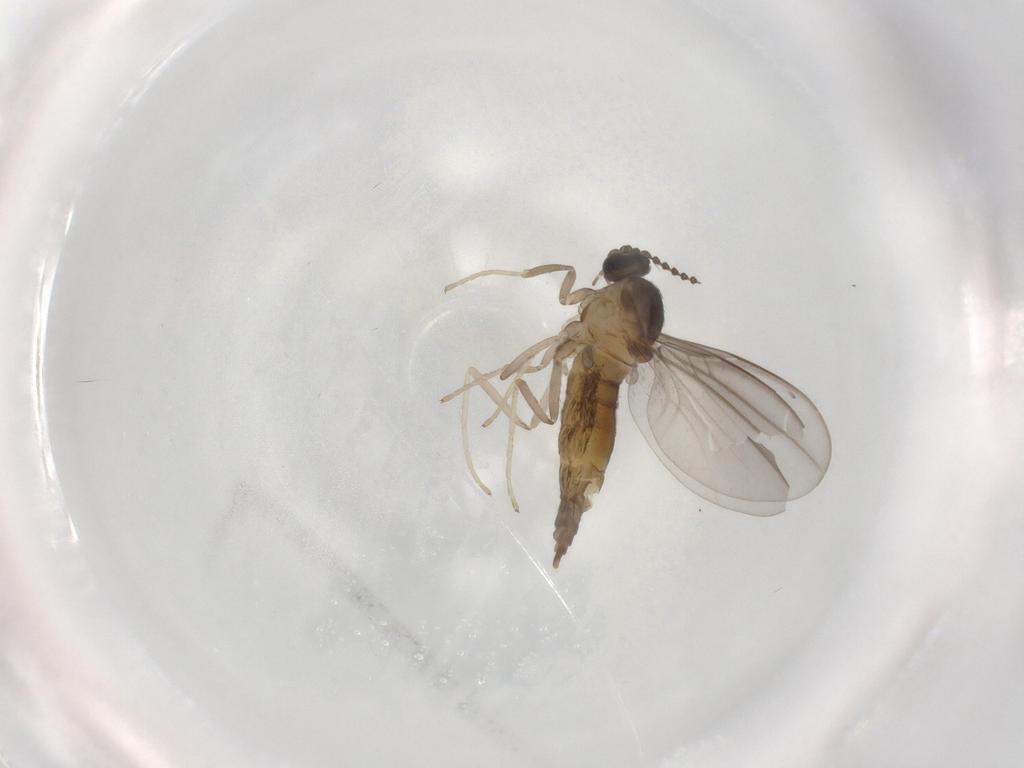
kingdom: Animalia
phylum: Arthropoda
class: Insecta
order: Diptera
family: Cecidomyiidae
